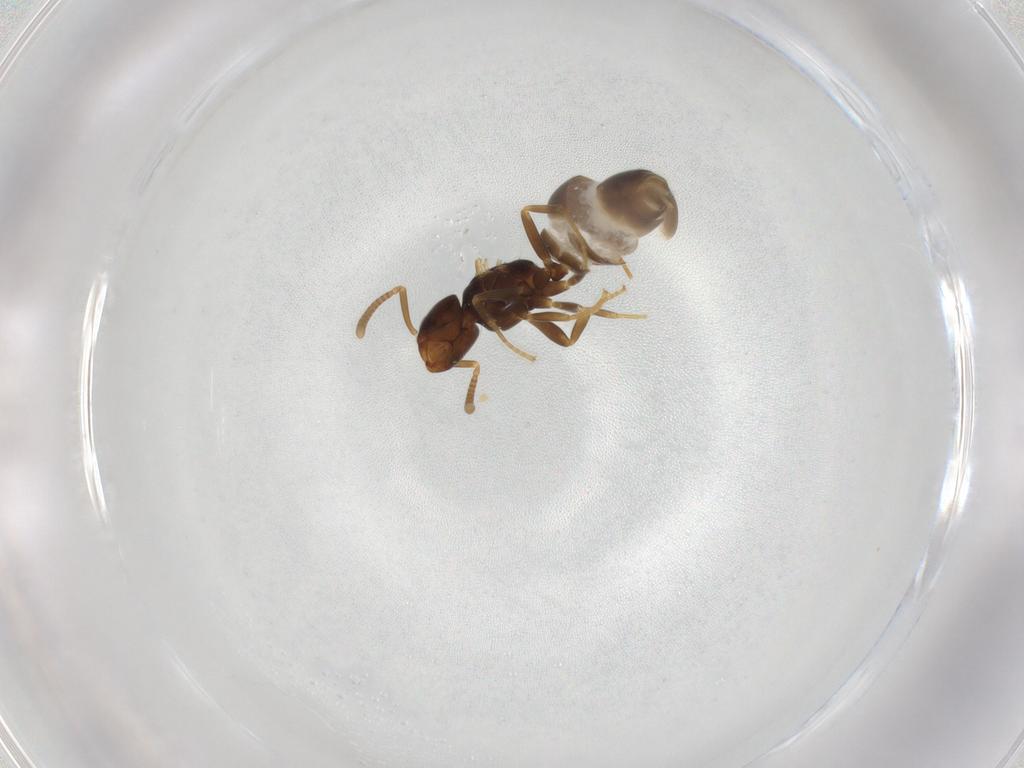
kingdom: Animalia
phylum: Arthropoda
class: Insecta
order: Hymenoptera
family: Formicidae
